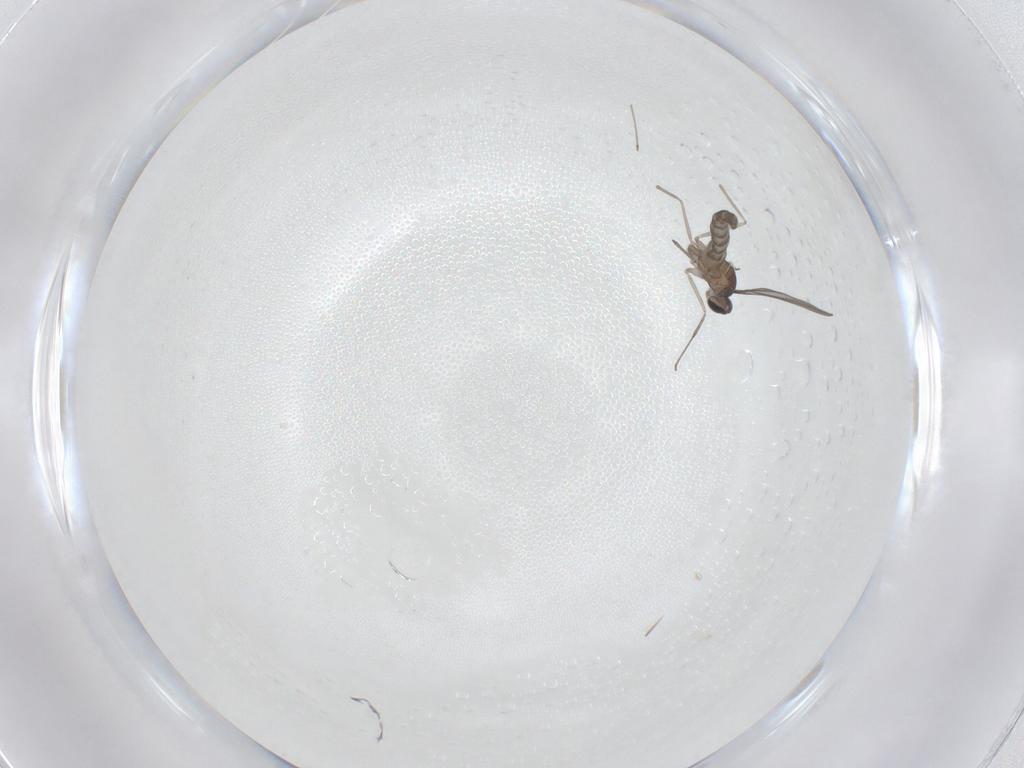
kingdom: Animalia
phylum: Arthropoda
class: Insecta
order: Diptera
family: Cecidomyiidae
